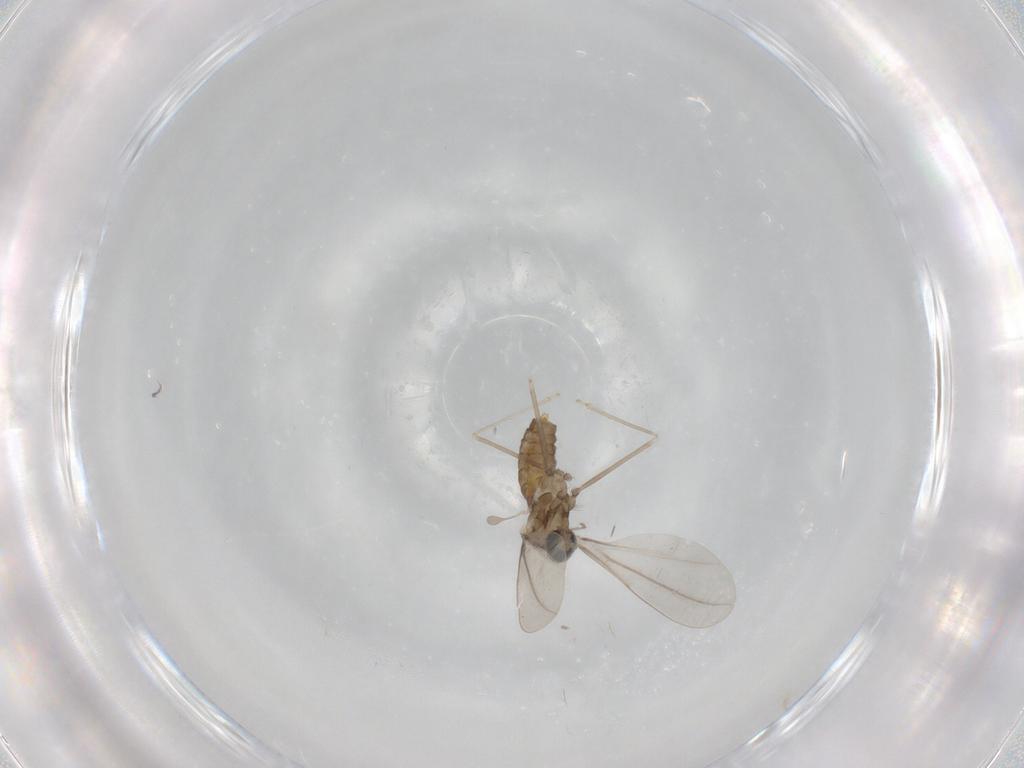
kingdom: Animalia
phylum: Arthropoda
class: Insecta
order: Diptera
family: Cecidomyiidae
